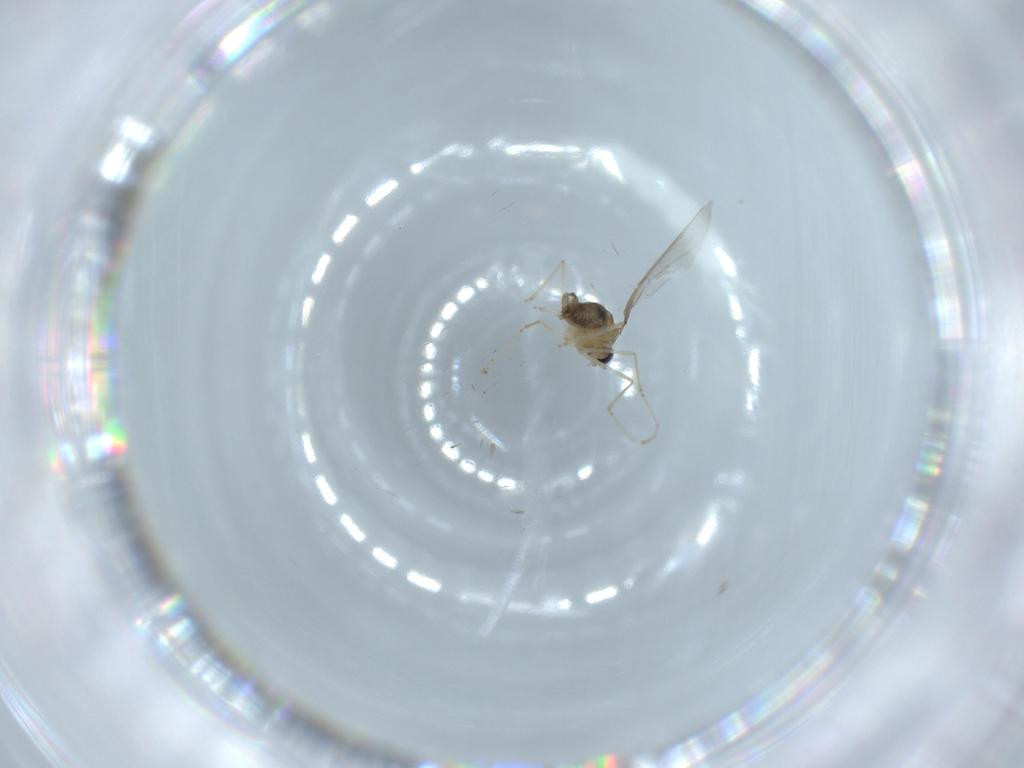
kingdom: Animalia
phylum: Arthropoda
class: Insecta
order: Diptera
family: Cecidomyiidae
